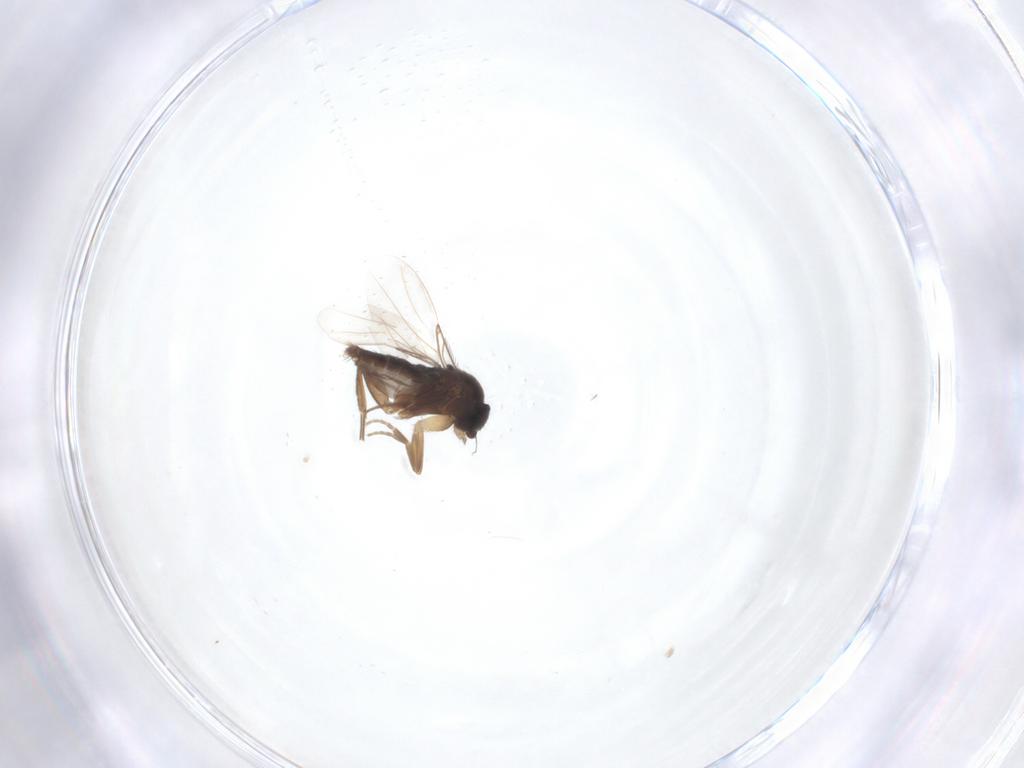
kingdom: Animalia
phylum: Arthropoda
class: Insecta
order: Diptera
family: Phoridae
